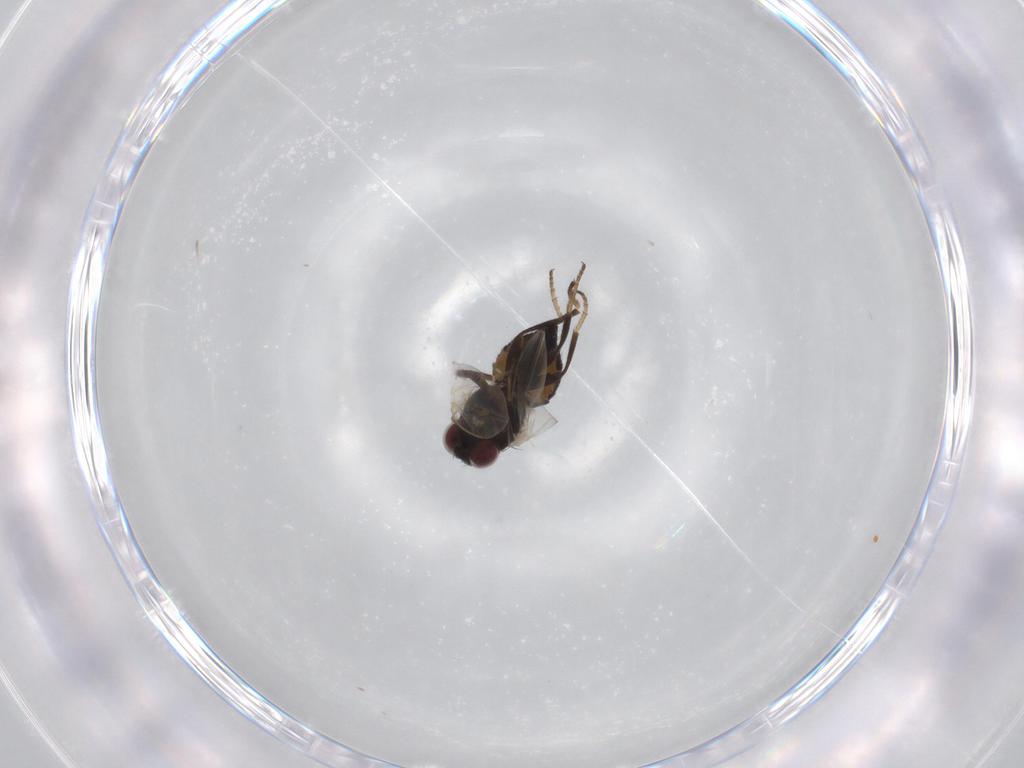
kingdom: Animalia
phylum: Arthropoda
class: Insecta
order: Diptera
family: Agromyzidae
